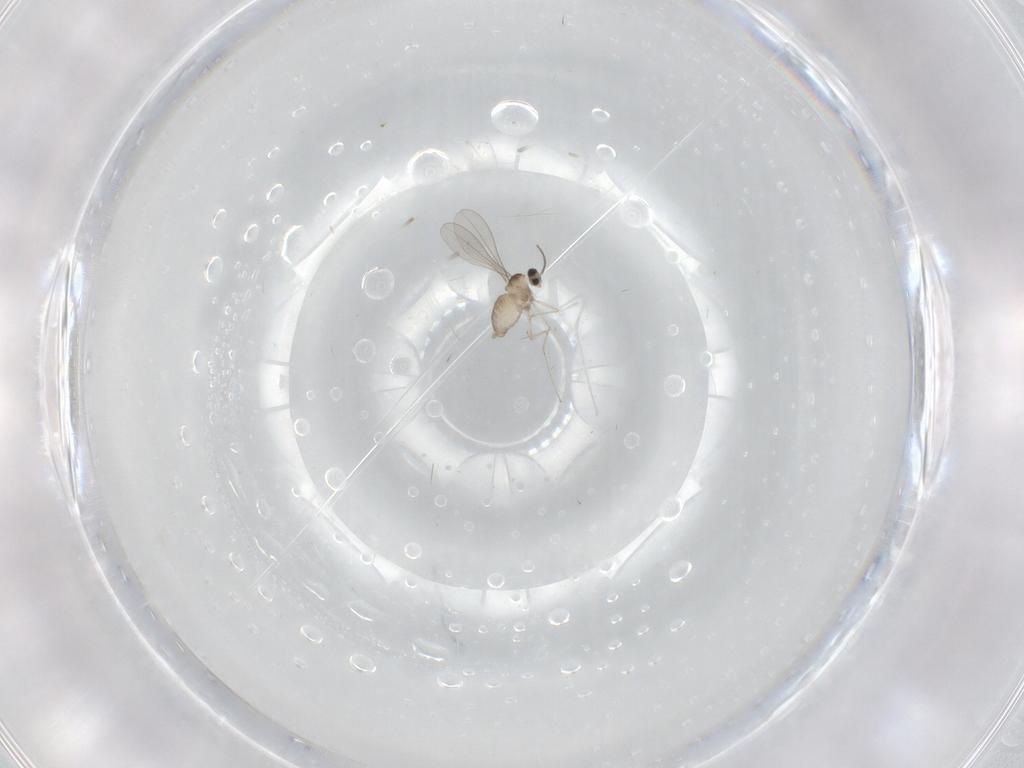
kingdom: Animalia
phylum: Arthropoda
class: Insecta
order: Diptera
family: Cecidomyiidae
